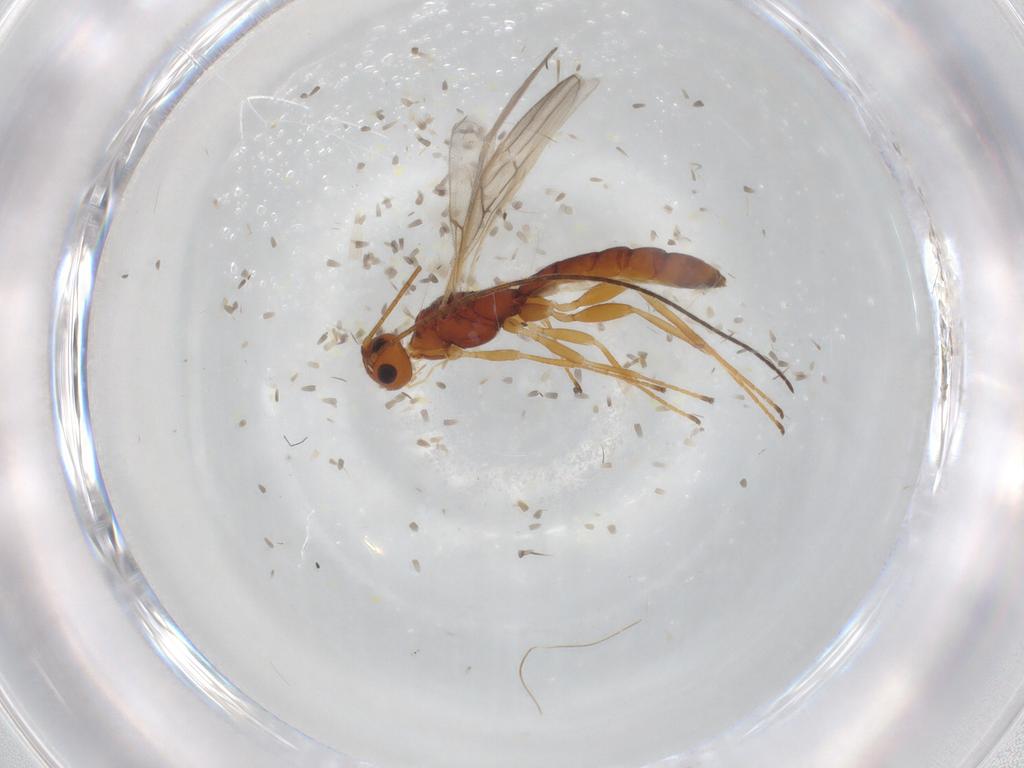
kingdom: Animalia
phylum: Arthropoda
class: Insecta
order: Hymenoptera
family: Braconidae
